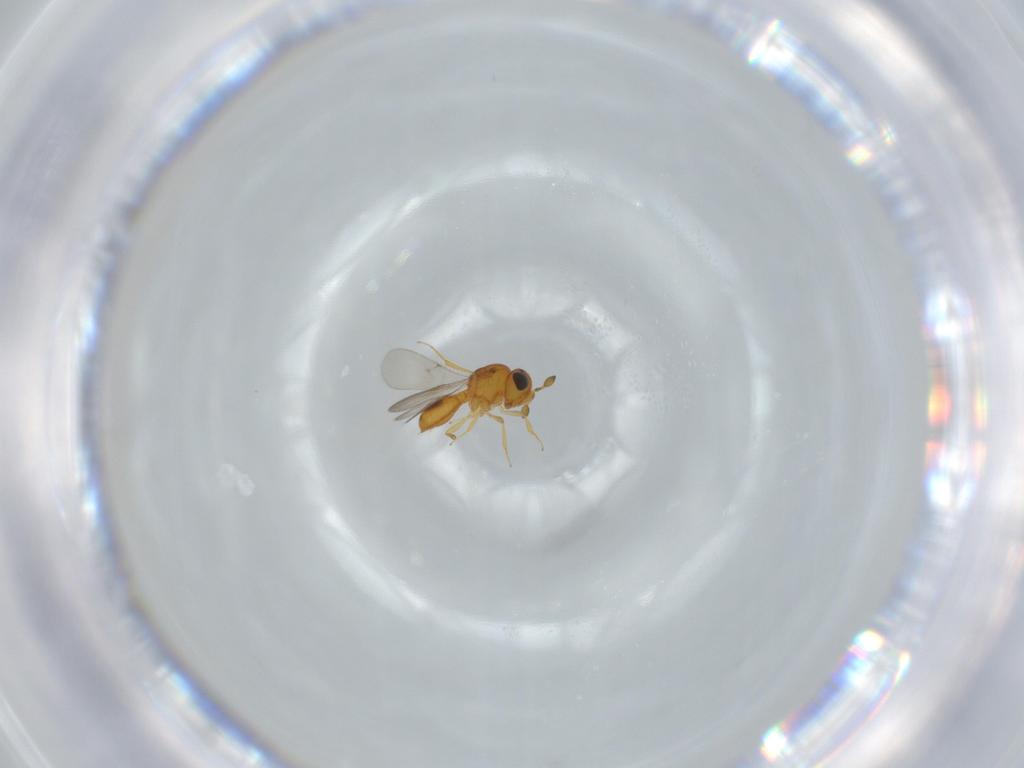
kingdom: Animalia
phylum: Arthropoda
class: Insecta
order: Hymenoptera
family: Scelionidae
